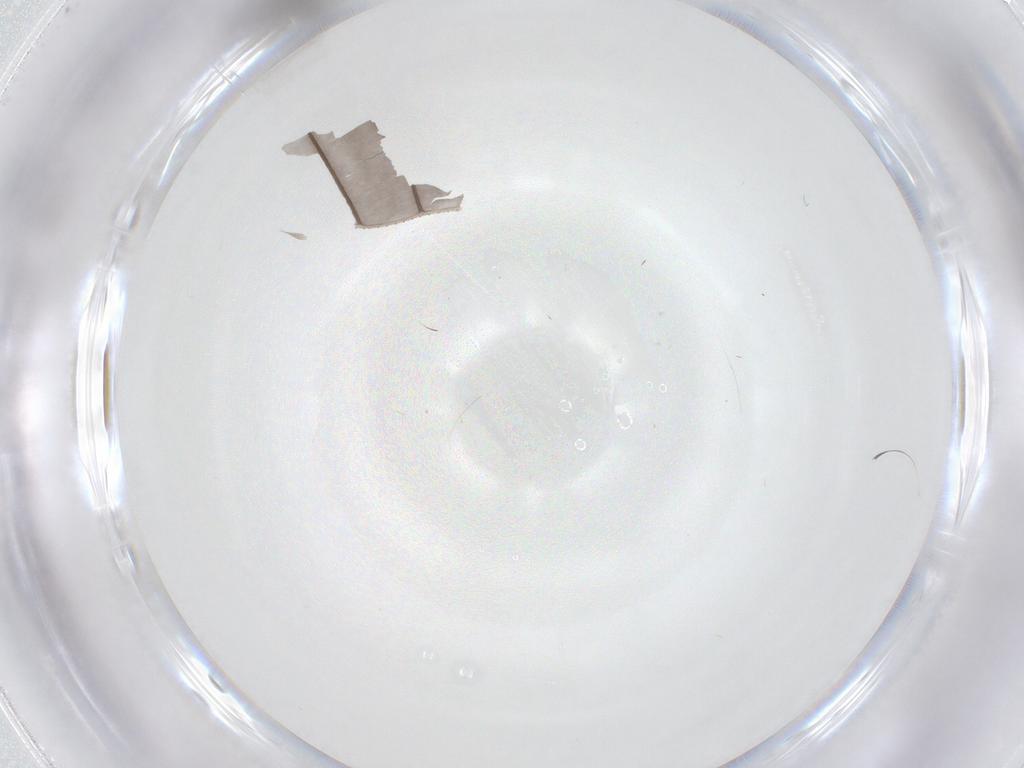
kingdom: Animalia
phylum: Arthropoda
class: Insecta
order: Diptera
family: Sciaridae
